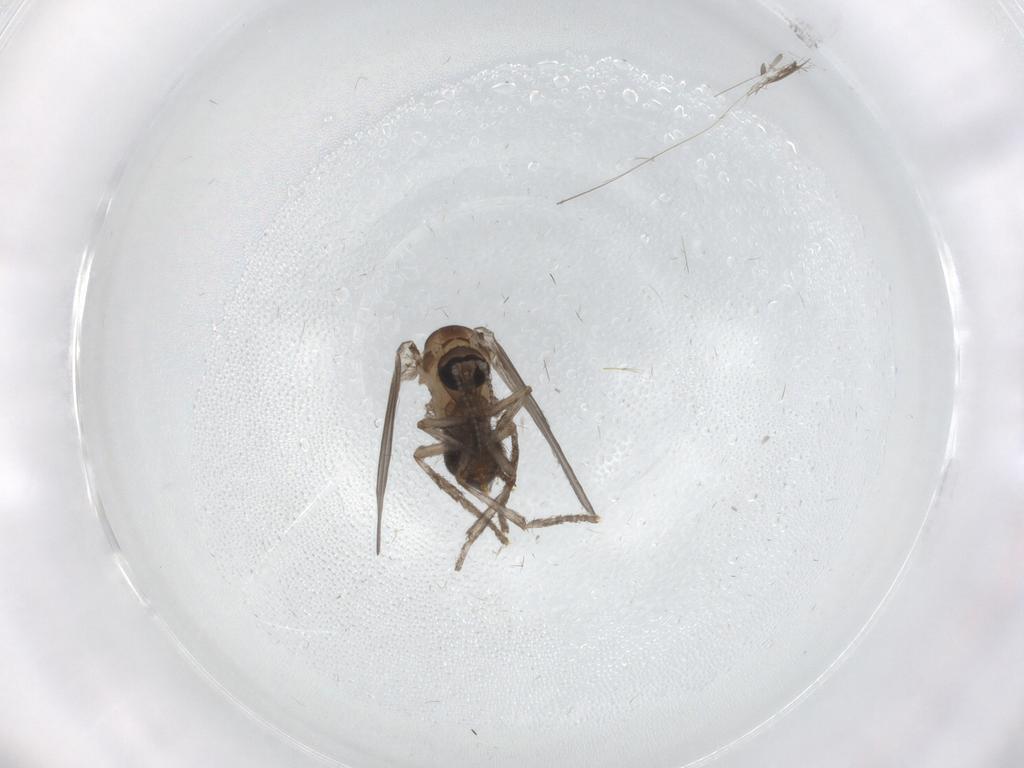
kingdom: Animalia
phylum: Arthropoda
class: Insecta
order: Diptera
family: Psychodidae
